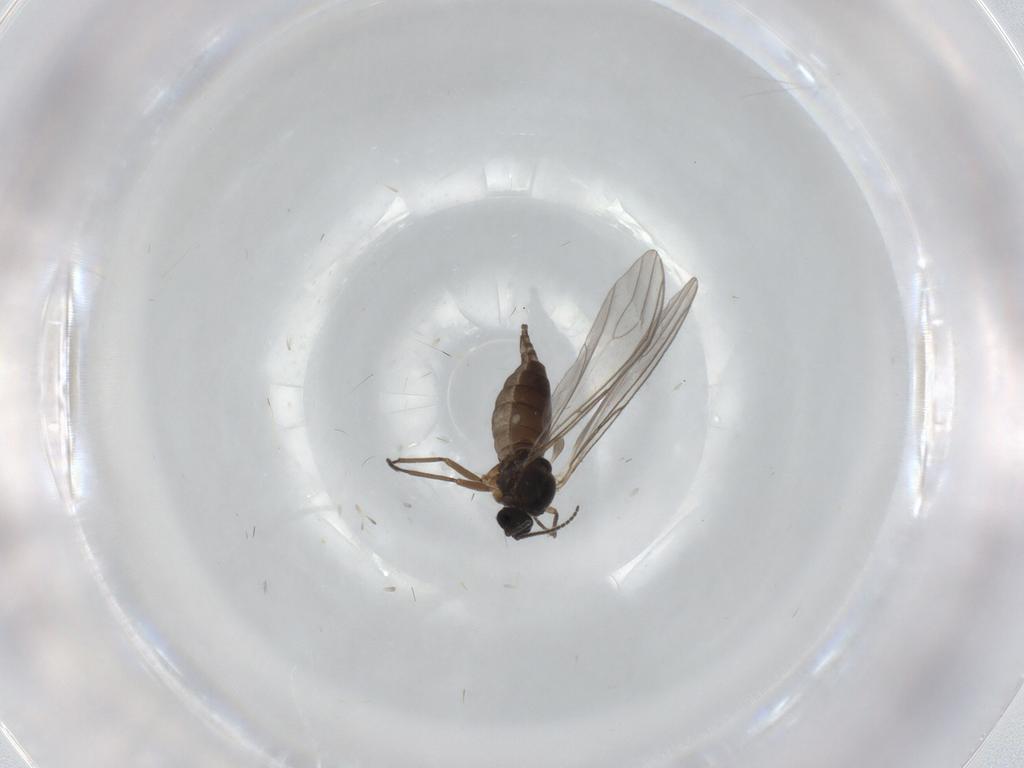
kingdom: Animalia
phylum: Arthropoda
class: Insecta
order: Diptera
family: Sciaridae
